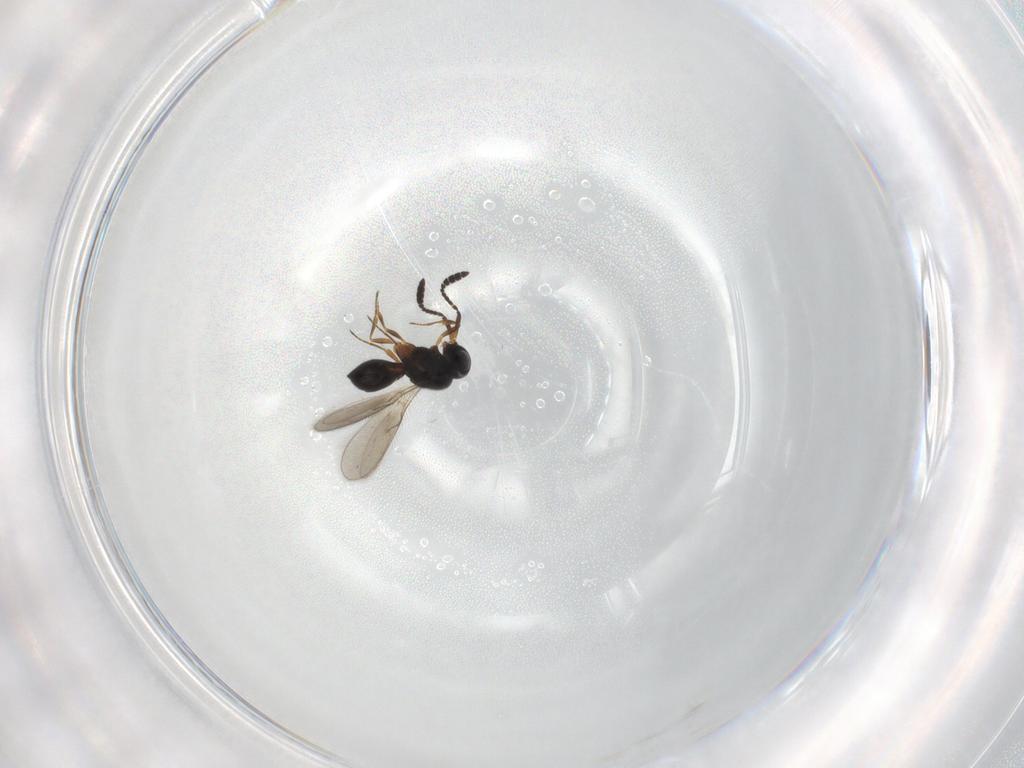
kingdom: Animalia
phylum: Arthropoda
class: Insecta
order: Hymenoptera
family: Scelionidae
